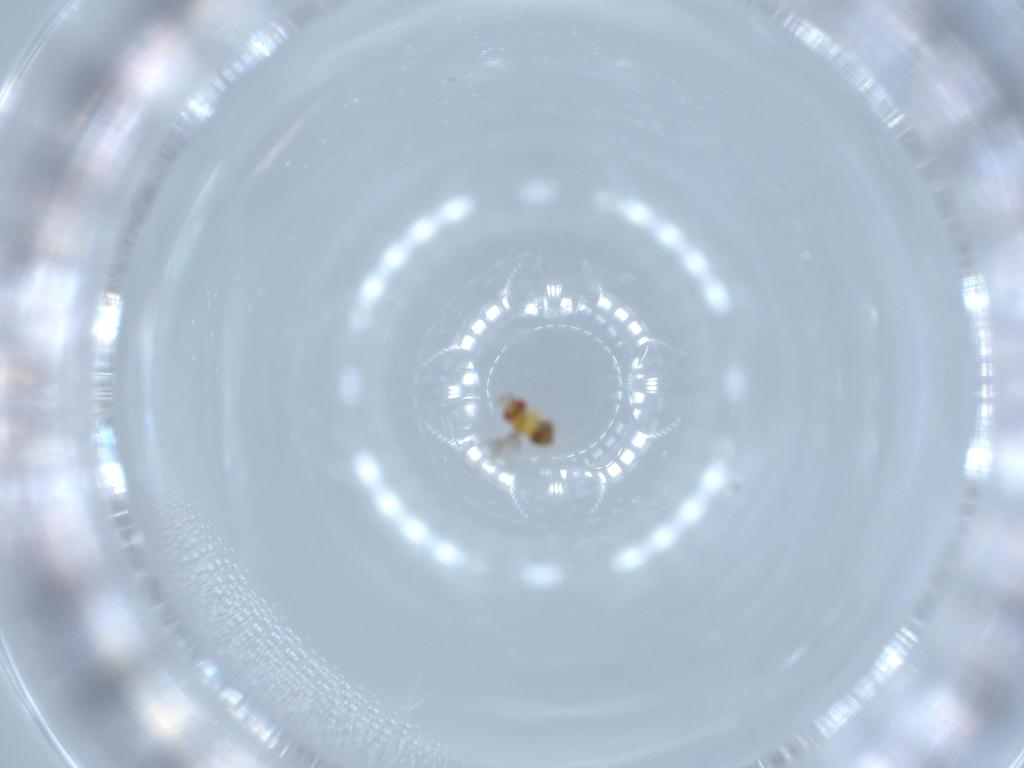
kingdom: Animalia
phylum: Arthropoda
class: Insecta
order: Hymenoptera
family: Trichogrammatidae
